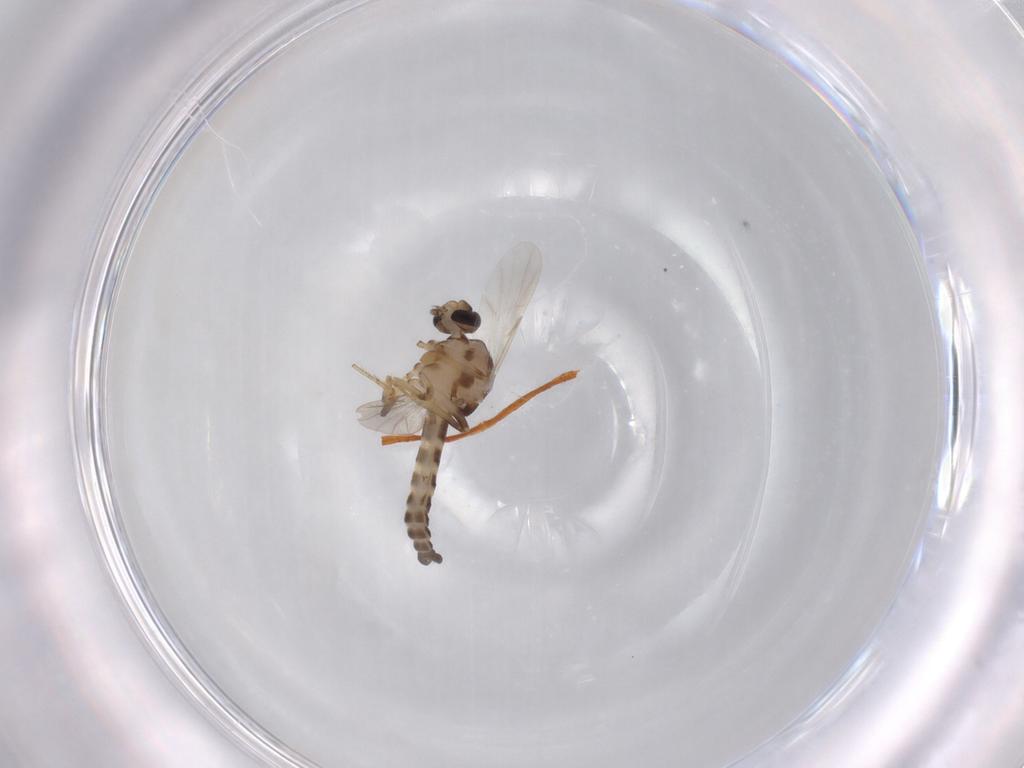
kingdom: Animalia
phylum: Arthropoda
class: Insecta
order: Diptera
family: Ceratopogonidae
